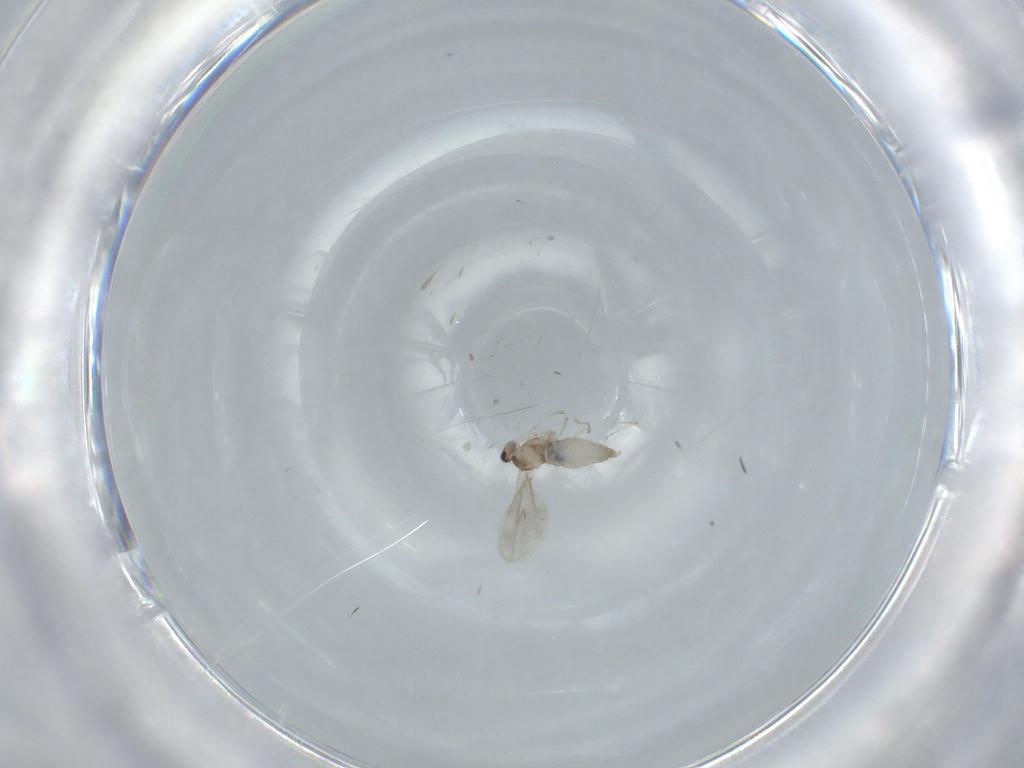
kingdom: Animalia
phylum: Arthropoda
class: Insecta
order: Diptera
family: Cecidomyiidae
